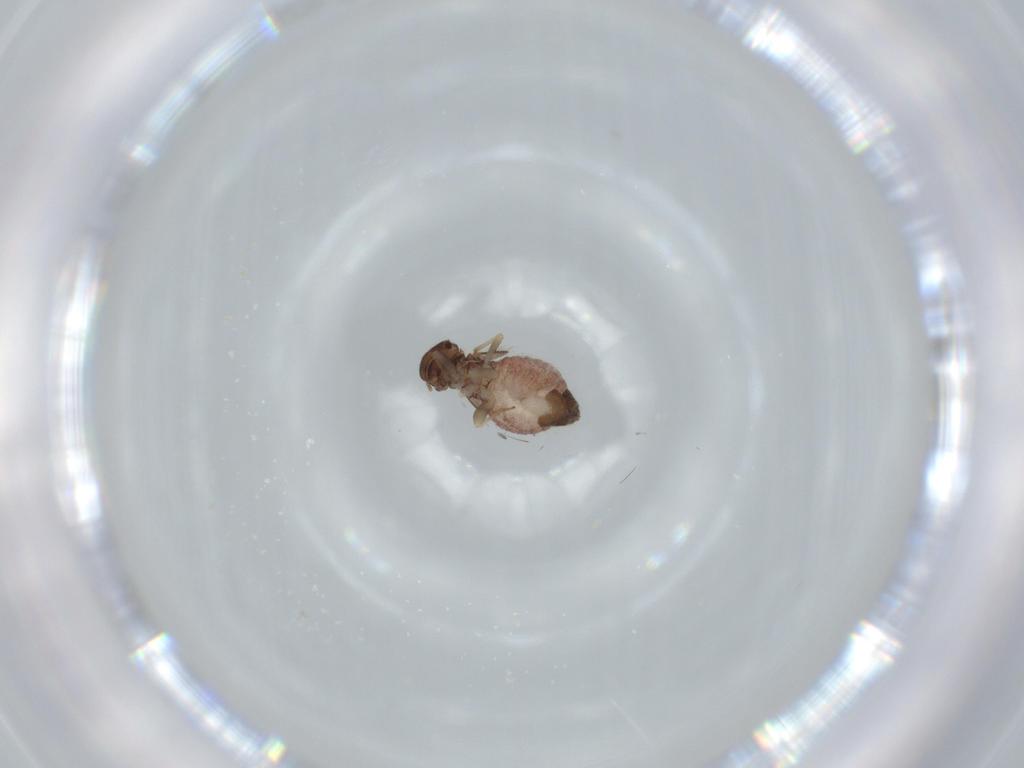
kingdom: Animalia
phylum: Arthropoda
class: Insecta
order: Psocodea
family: Archipsocidae
